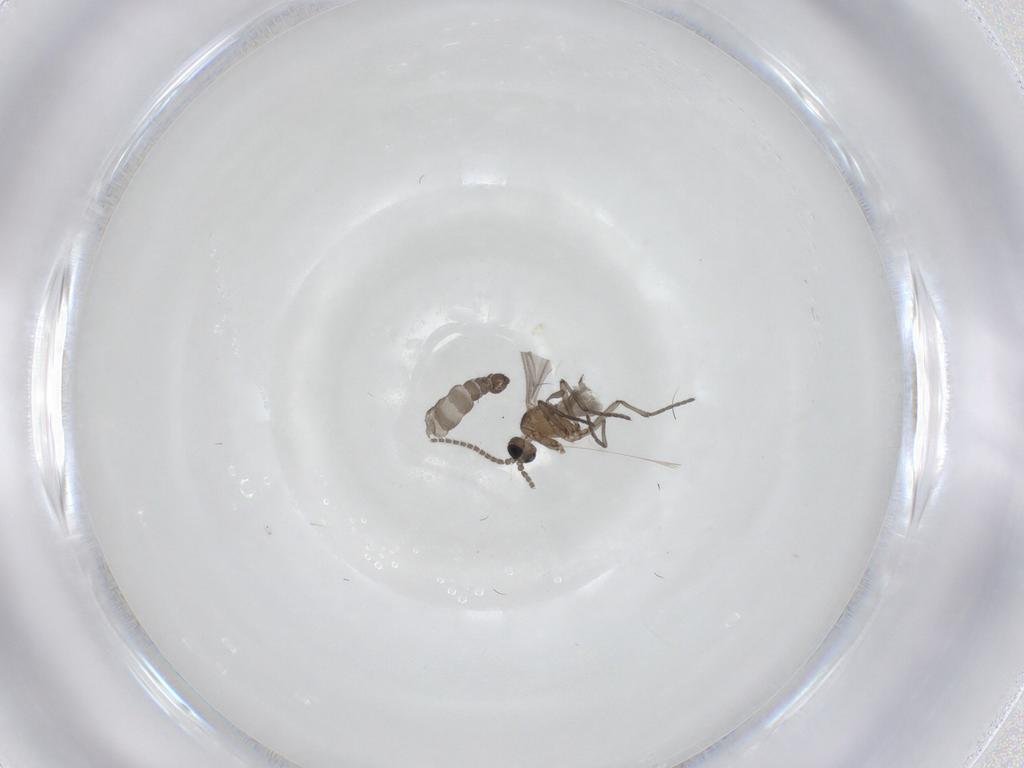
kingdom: Animalia
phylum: Arthropoda
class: Insecta
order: Diptera
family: Sciaridae
